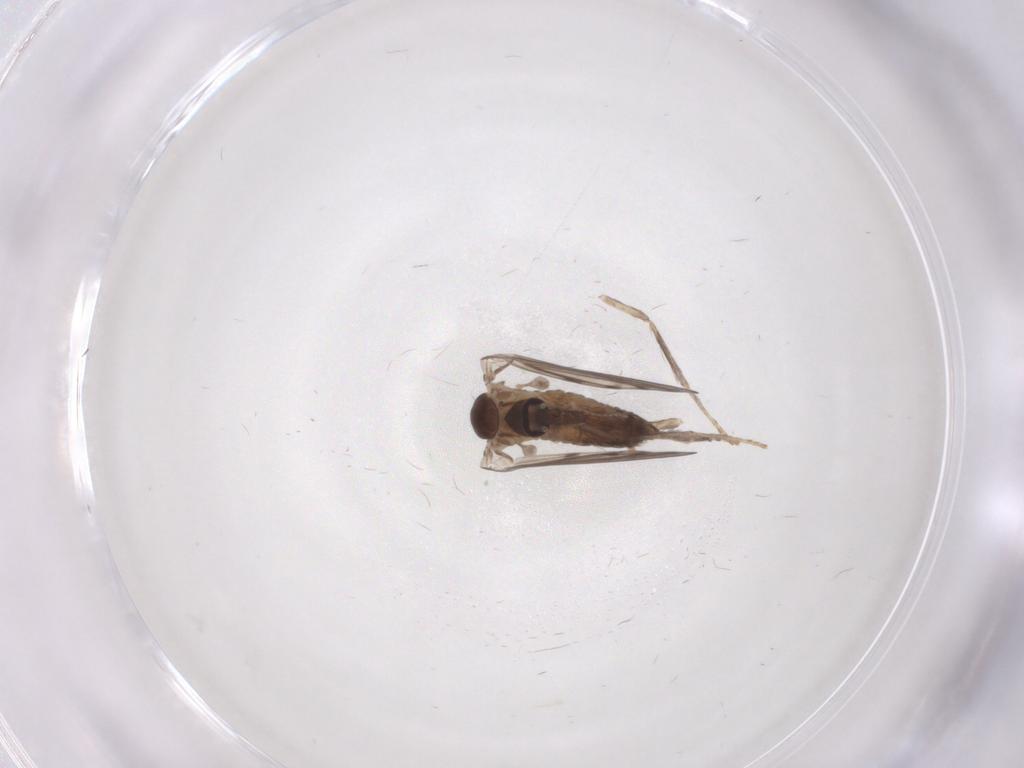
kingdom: Animalia
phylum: Arthropoda
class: Insecta
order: Diptera
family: Psychodidae
